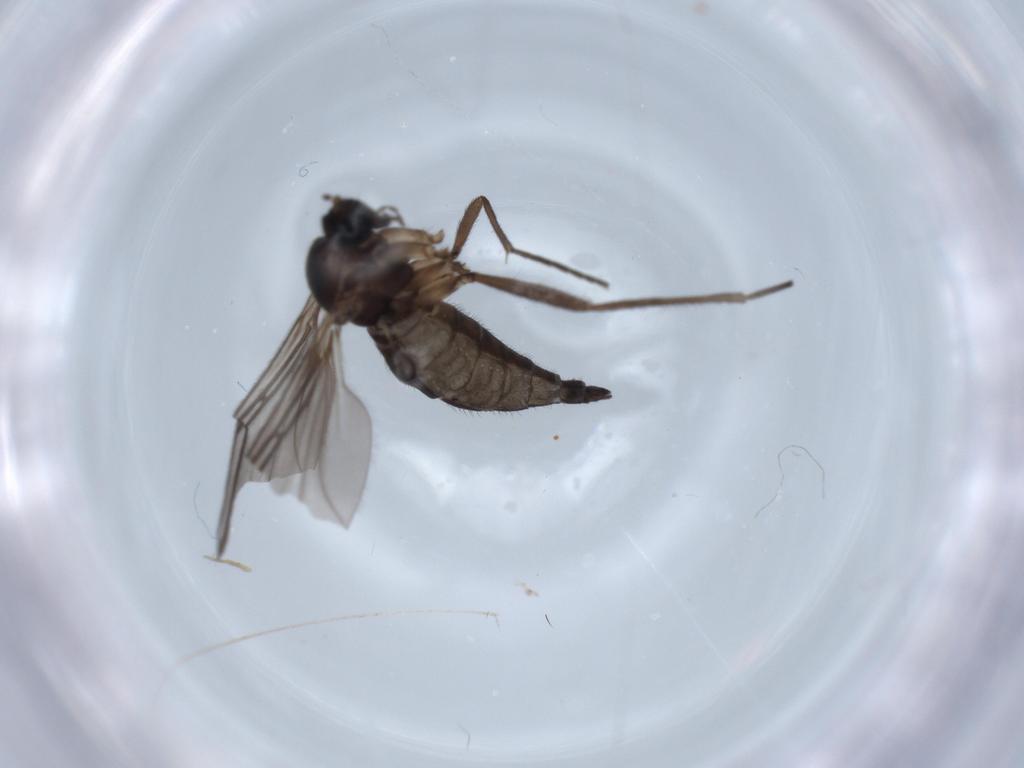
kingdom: Animalia
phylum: Arthropoda
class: Insecta
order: Diptera
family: Sciaridae
